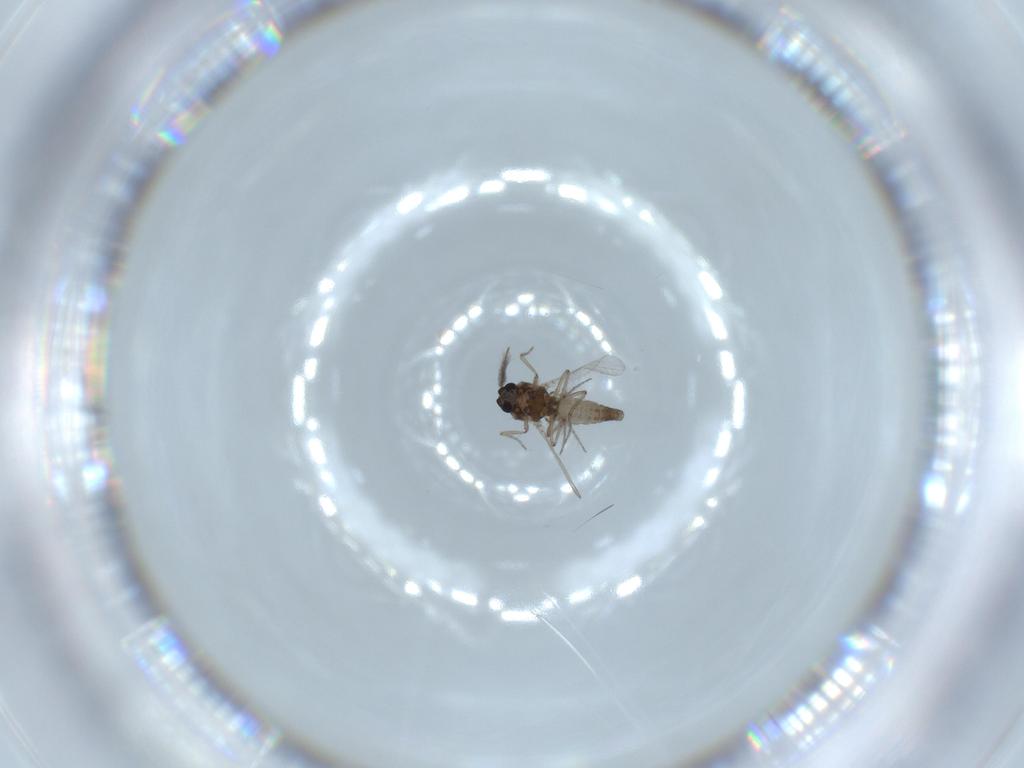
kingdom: Animalia
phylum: Arthropoda
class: Insecta
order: Diptera
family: Ceratopogonidae
